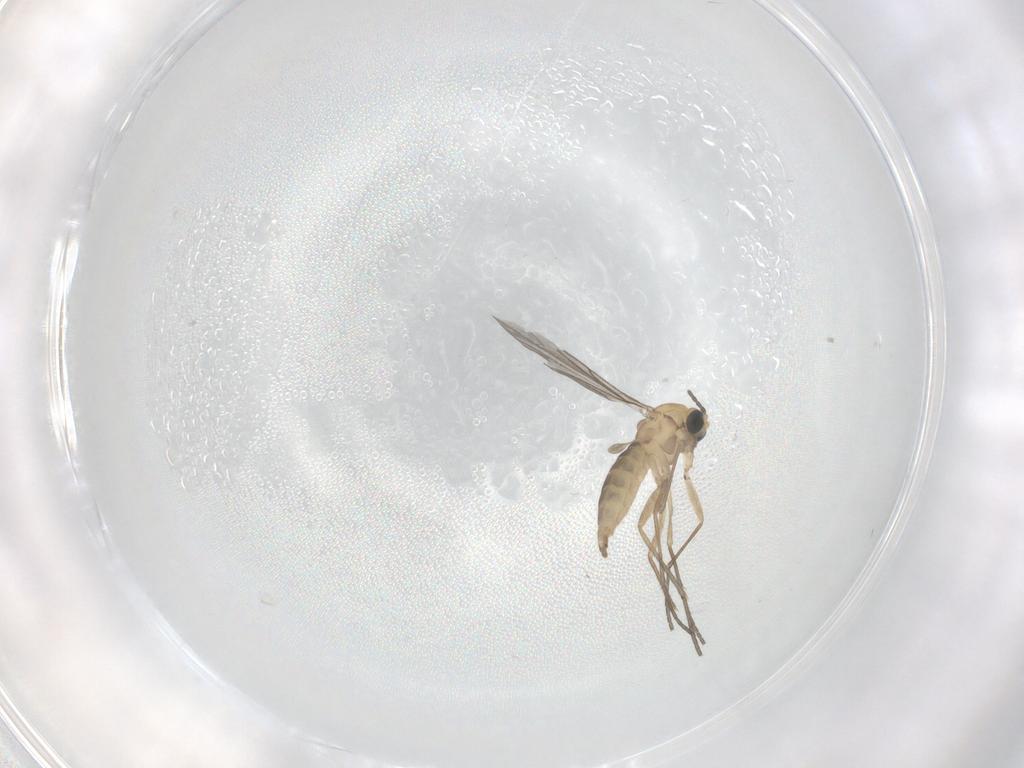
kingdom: Animalia
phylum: Arthropoda
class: Insecta
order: Diptera
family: Sciaridae
